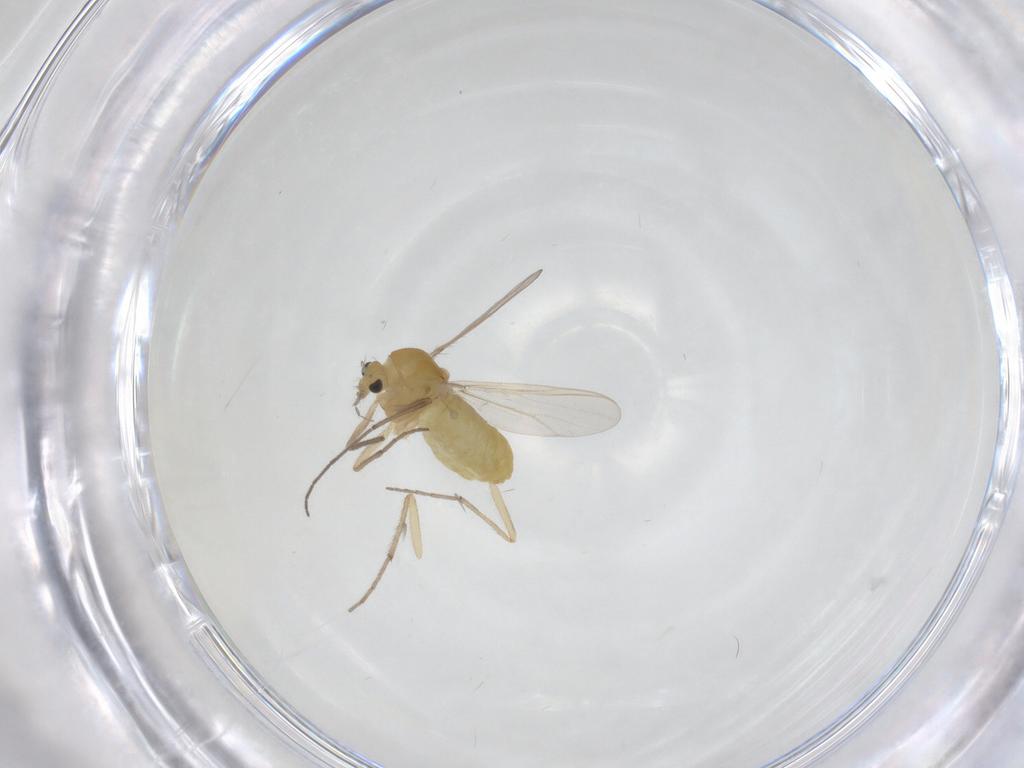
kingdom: Animalia
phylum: Arthropoda
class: Insecta
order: Diptera
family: Chironomidae
